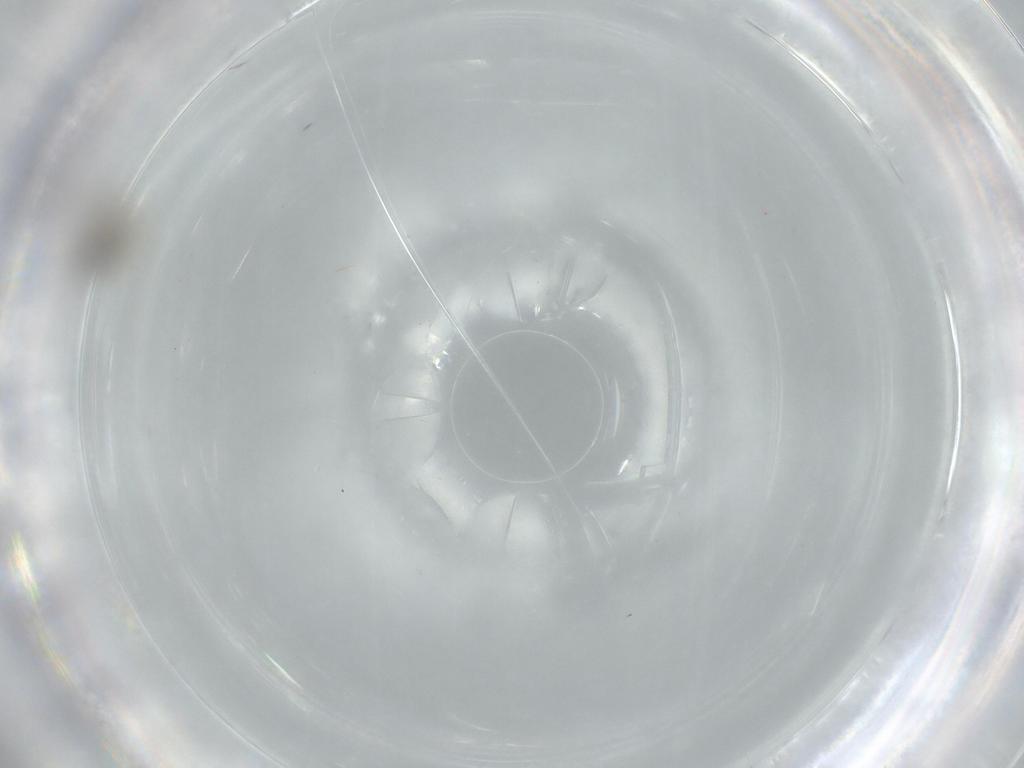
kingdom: Animalia
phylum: Arthropoda
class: Insecta
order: Diptera
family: Cecidomyiidae
